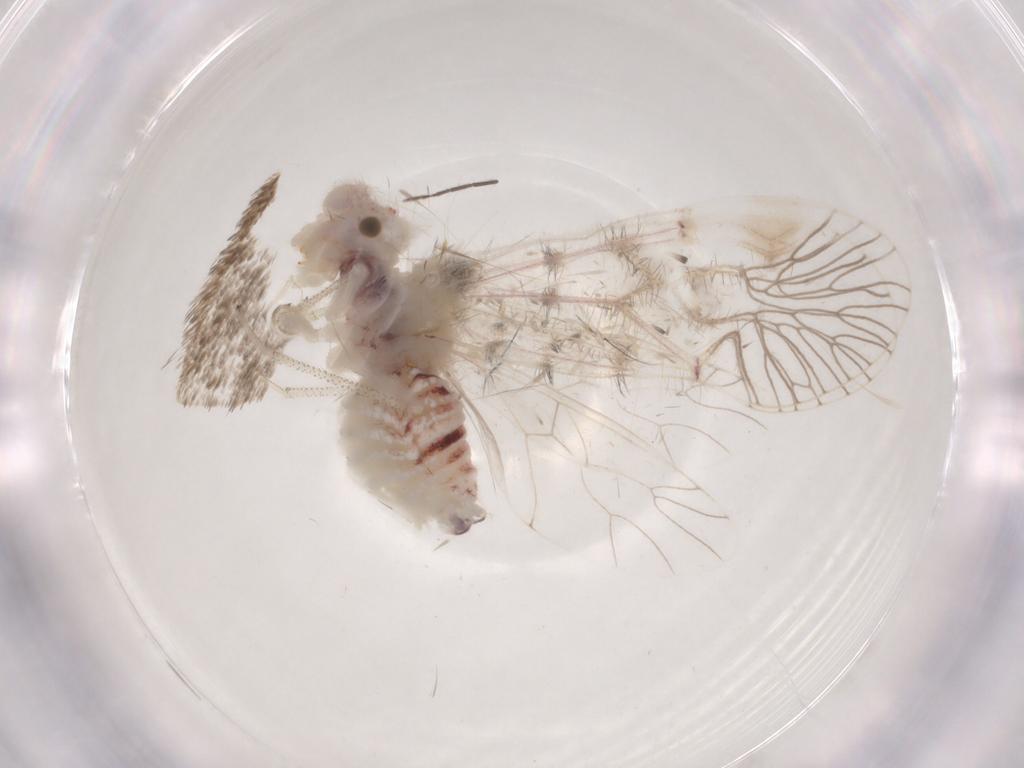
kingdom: Animalia
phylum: Arthropoda
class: Insecta
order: Psocodea
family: Amphipsocidae
